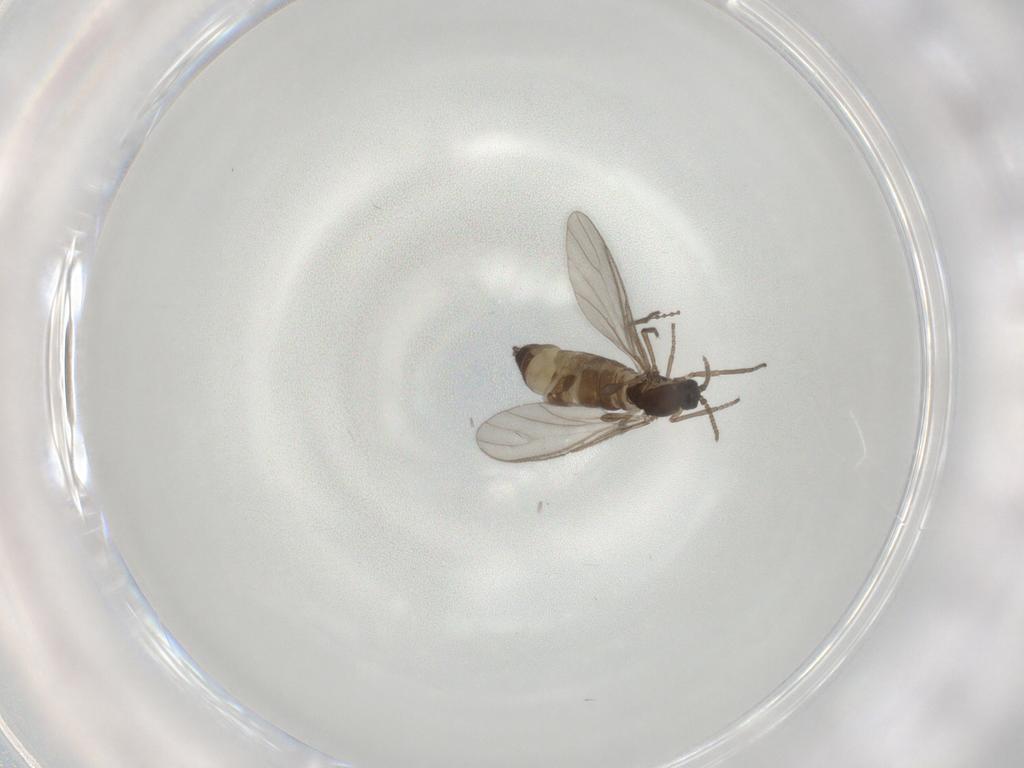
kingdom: Animalia
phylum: Arthropoda
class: Insecta
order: Diptera
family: Sciaridae
